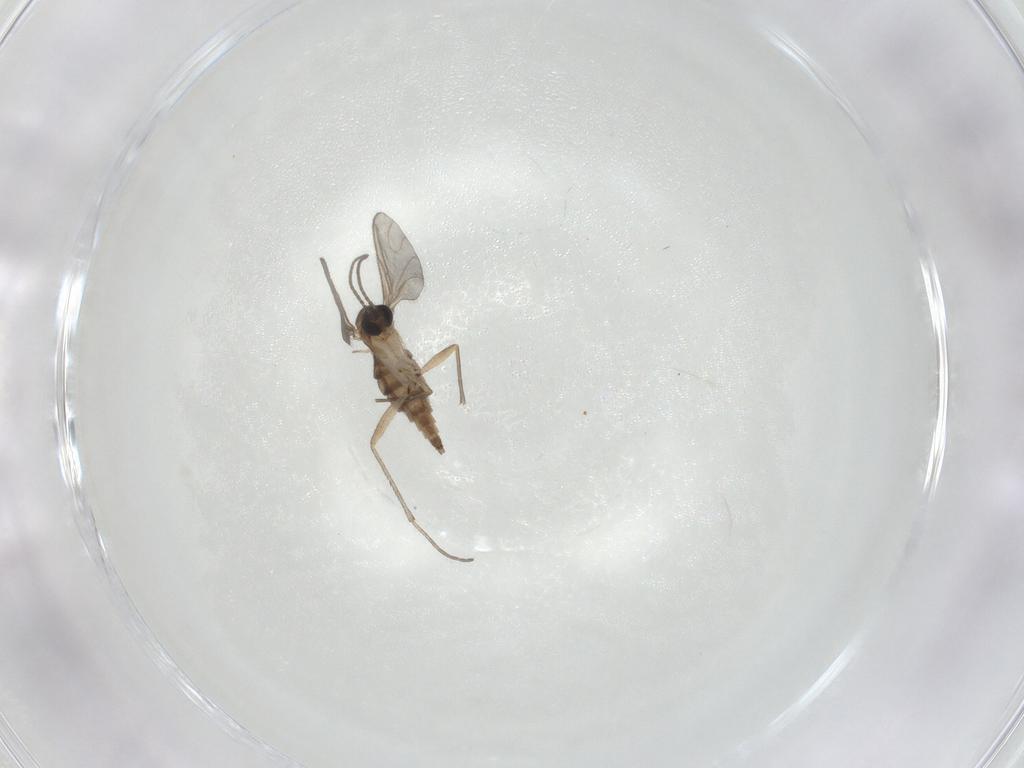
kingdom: Animalia
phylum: Arthropoda
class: Insecta
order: Diptera
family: Sciaridae
